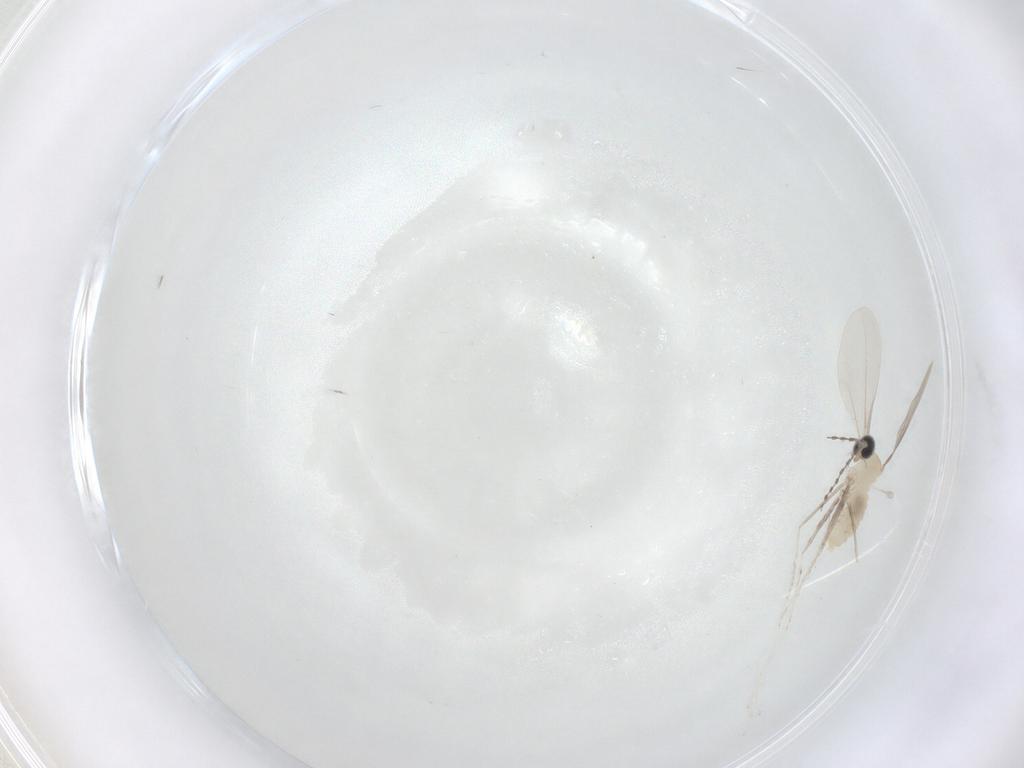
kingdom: Animalia
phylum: Arthropoda
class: Insecta
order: Diptera
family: Cecidomyiidae
